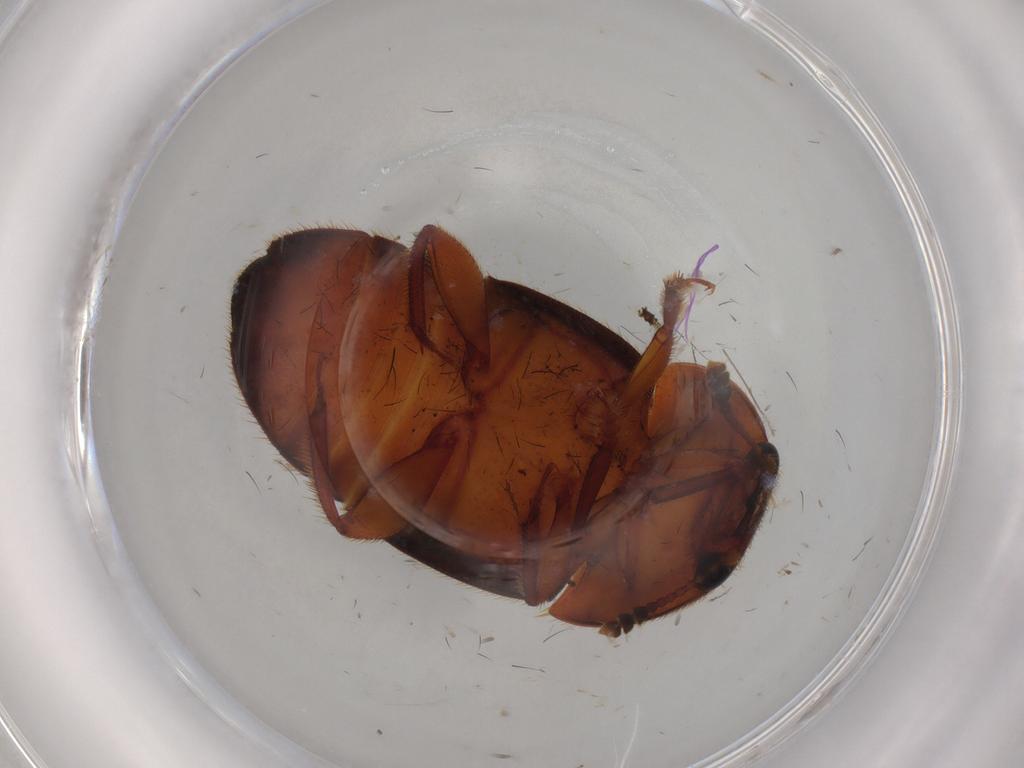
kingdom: Animalia
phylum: Arthropoda
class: Insecta
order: Coleoptera
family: Nitidulidae
